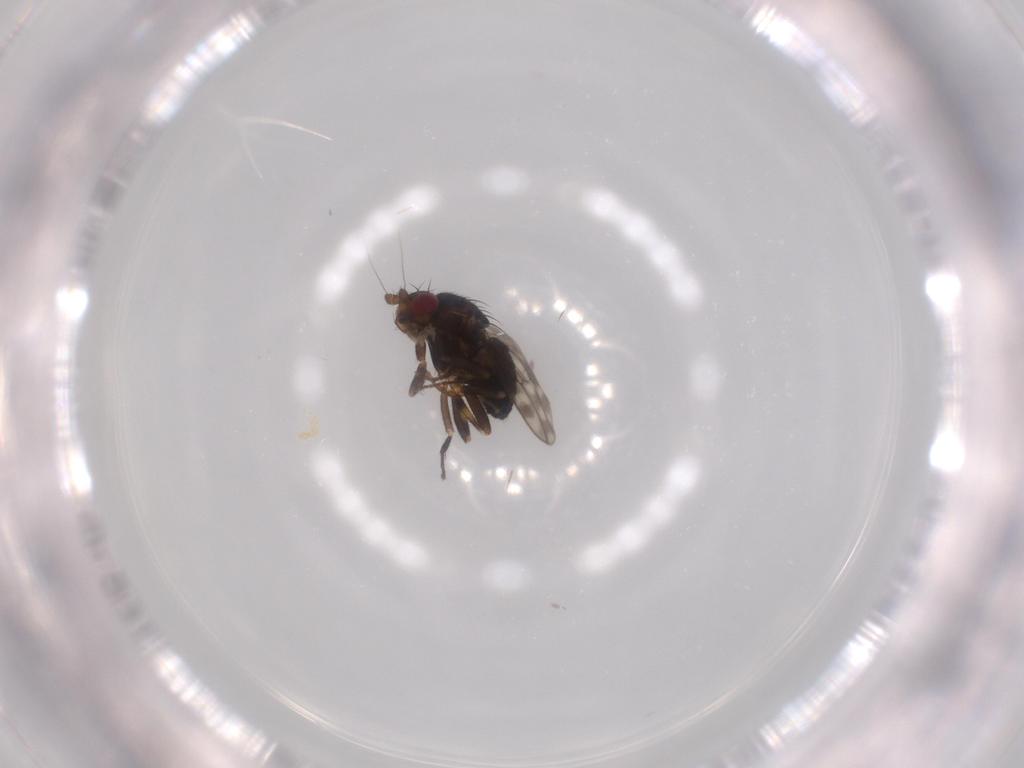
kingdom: Animalia
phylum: Arthropoda
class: Insecta
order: Diptera
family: Sphaeroceridae
